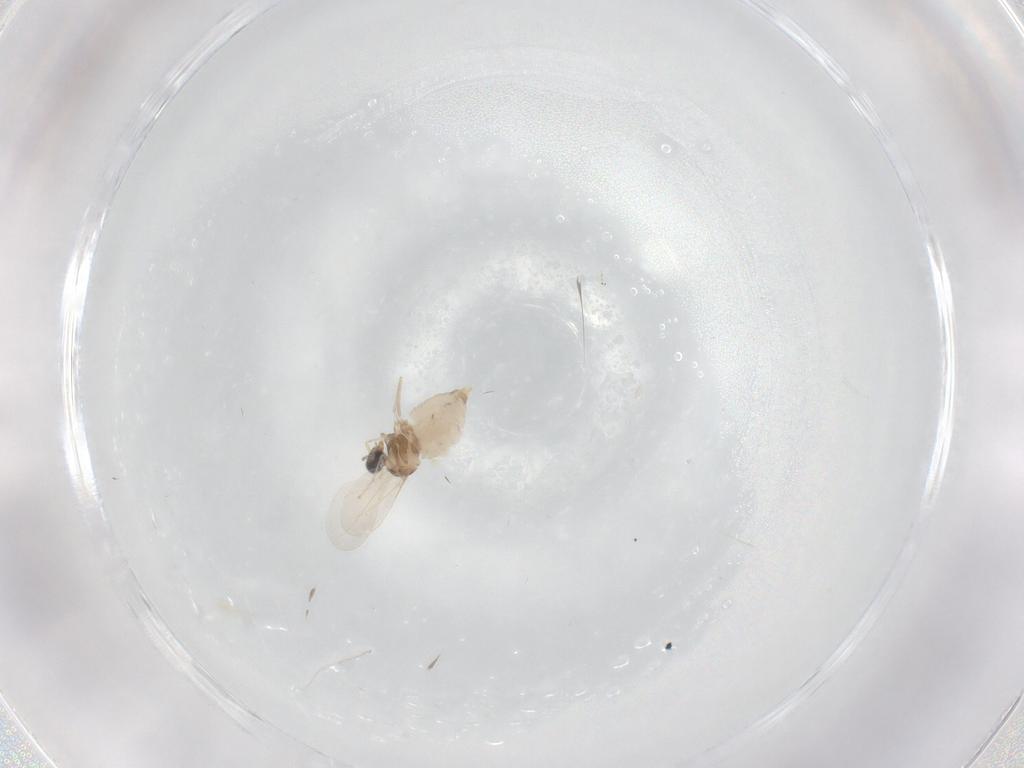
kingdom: Animalia
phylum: Arthropoda
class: Insecta
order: Diptera
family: Cecidomyiidae
